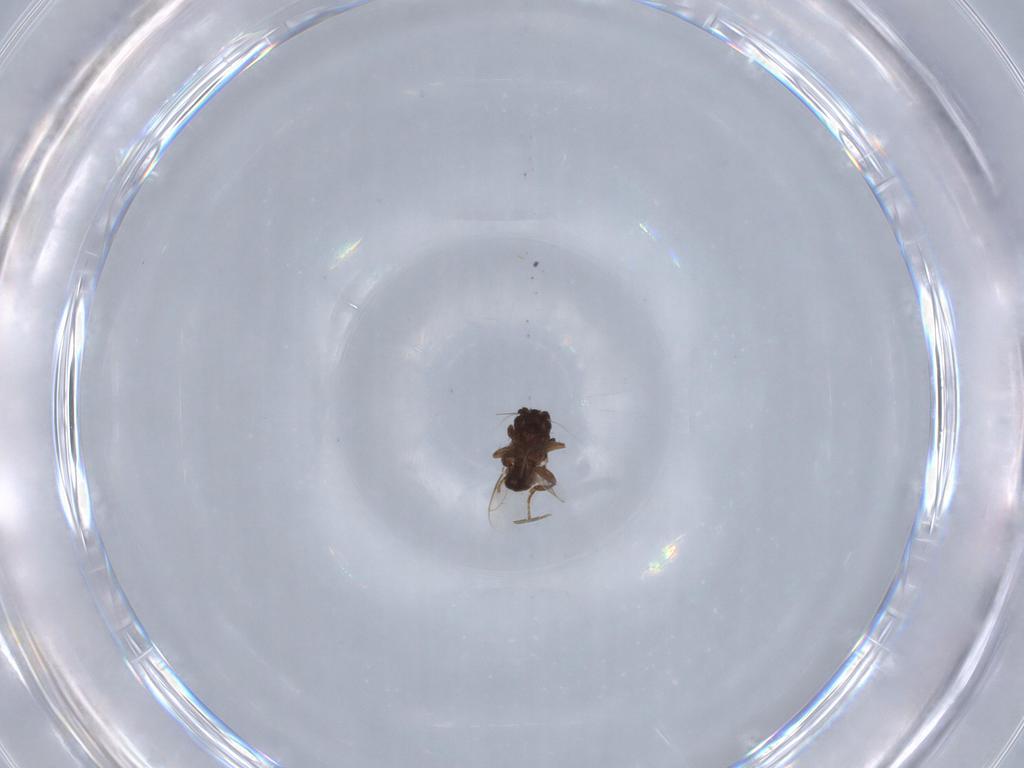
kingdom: Animalia
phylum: Arthropoda
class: Insecta
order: Diptera
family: Phoridae
